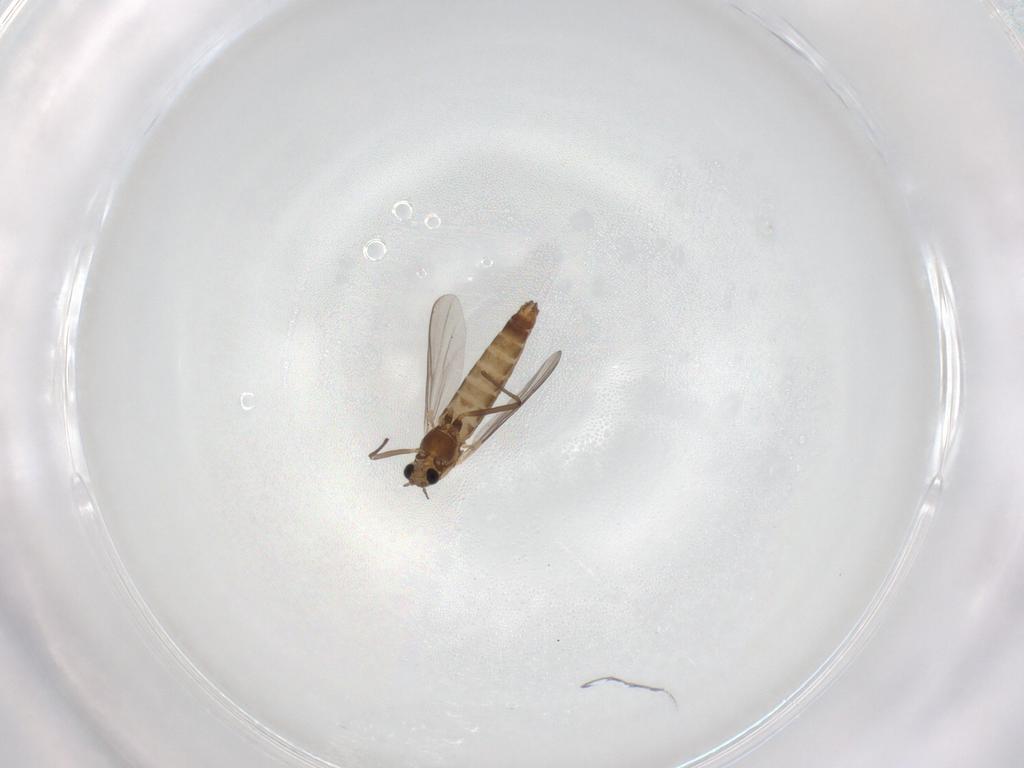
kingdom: Animalia
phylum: Arthropoda
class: Insecta
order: Diptera
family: Chironomidae
